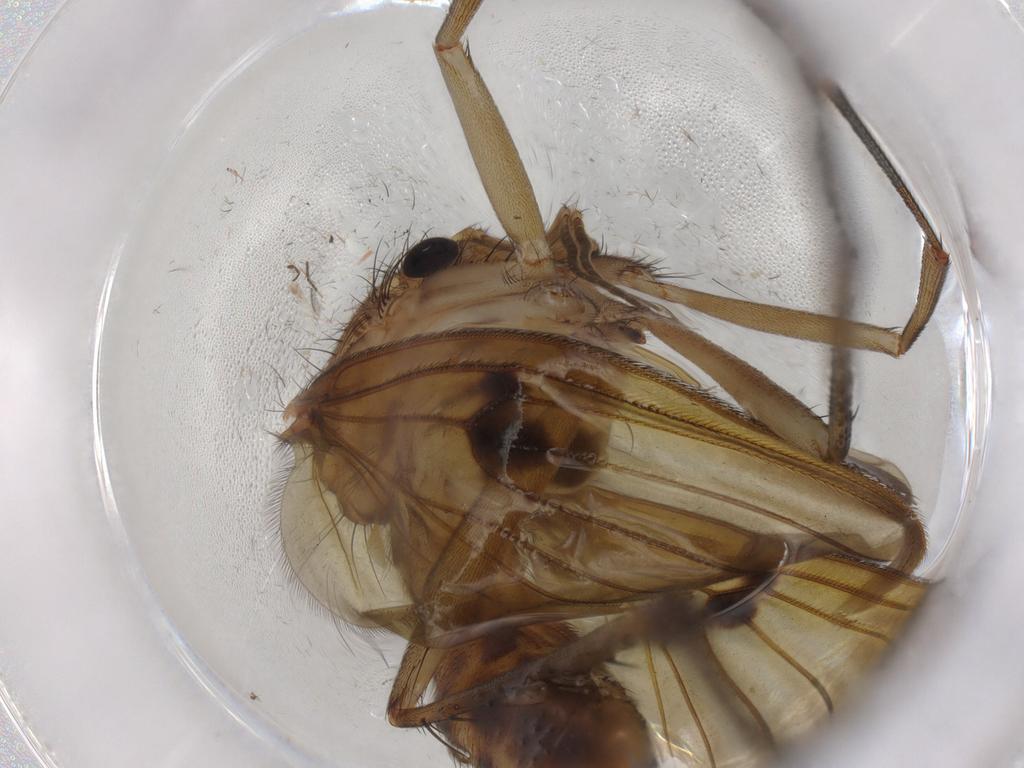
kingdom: Animalia
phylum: Arthropoda
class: Insecta
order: Diptera
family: Mycetophilidae
